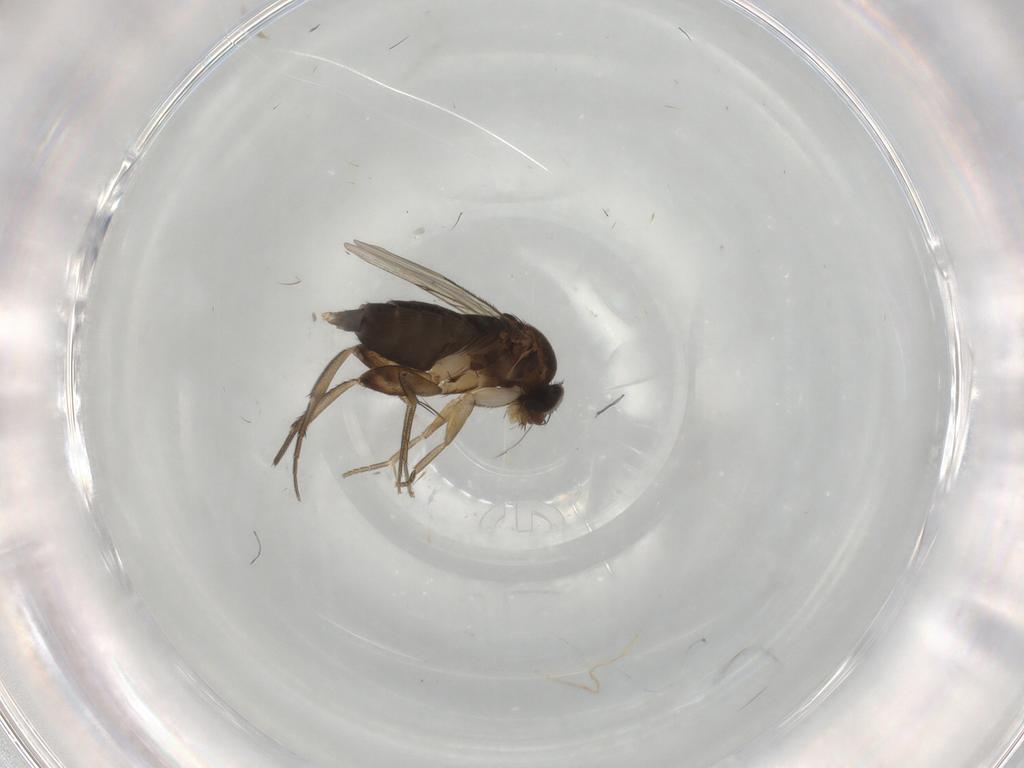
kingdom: Animalia
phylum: Arthropoda
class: Insecta
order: Diptera
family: Phoridae
